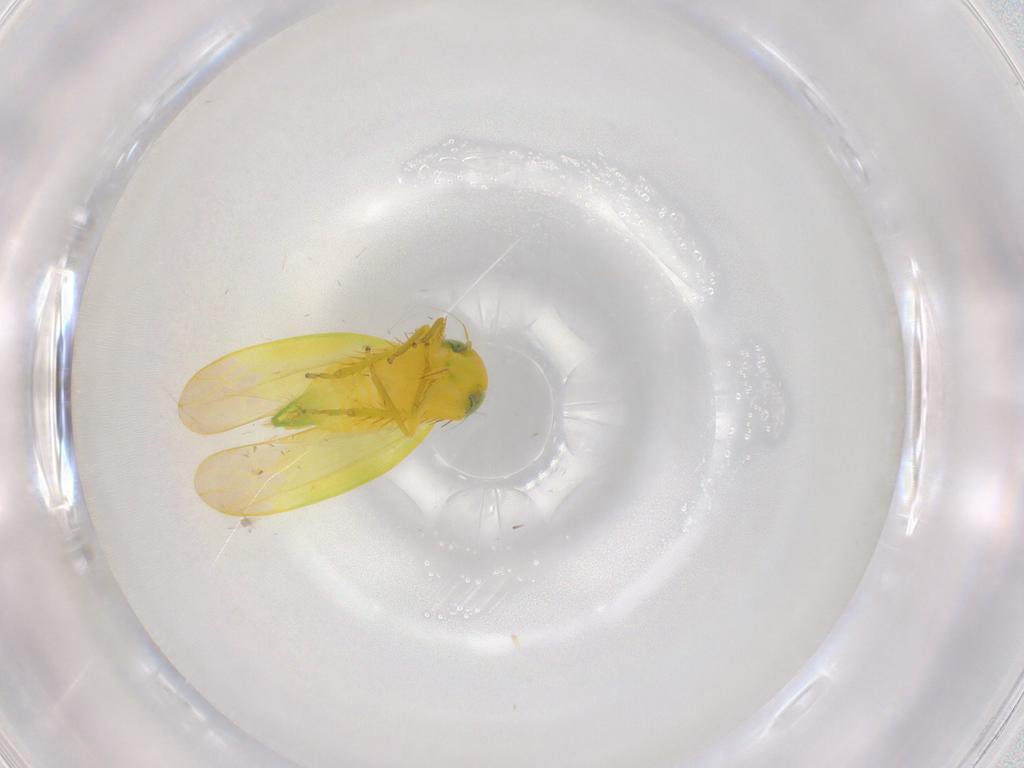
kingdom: Animalia
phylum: Arthropoda
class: Insecta
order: Hemiptera
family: Cicadellidae
